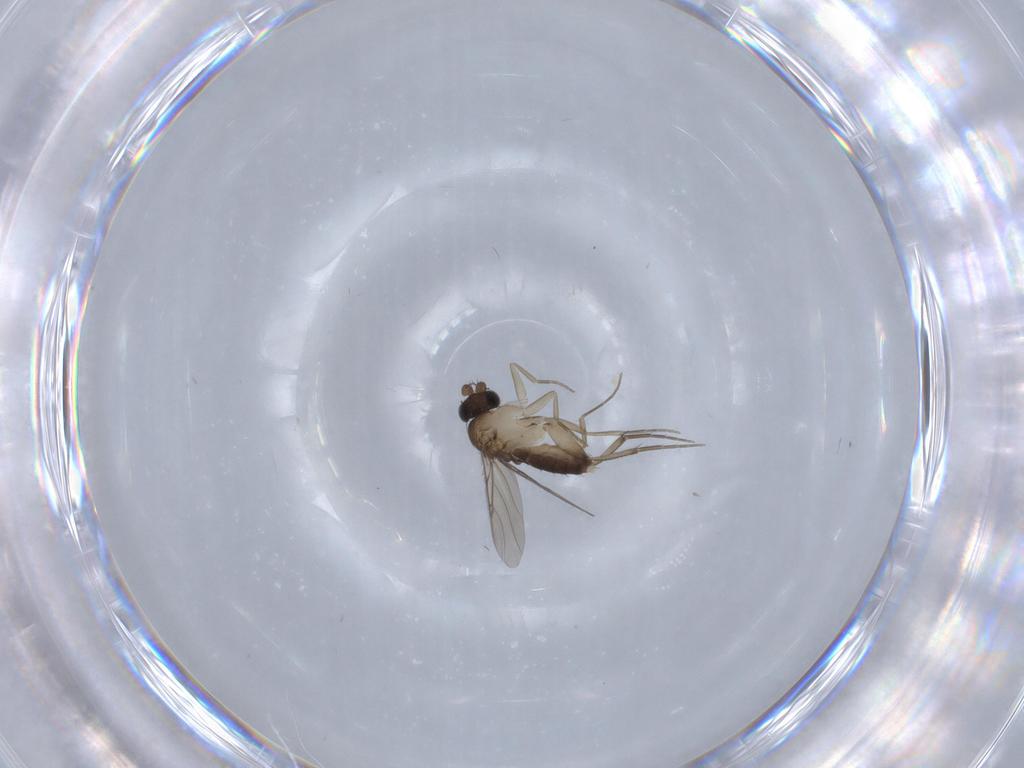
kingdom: Animalia
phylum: Arthropoda
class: Insecta
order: Diptera
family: Phoridae
